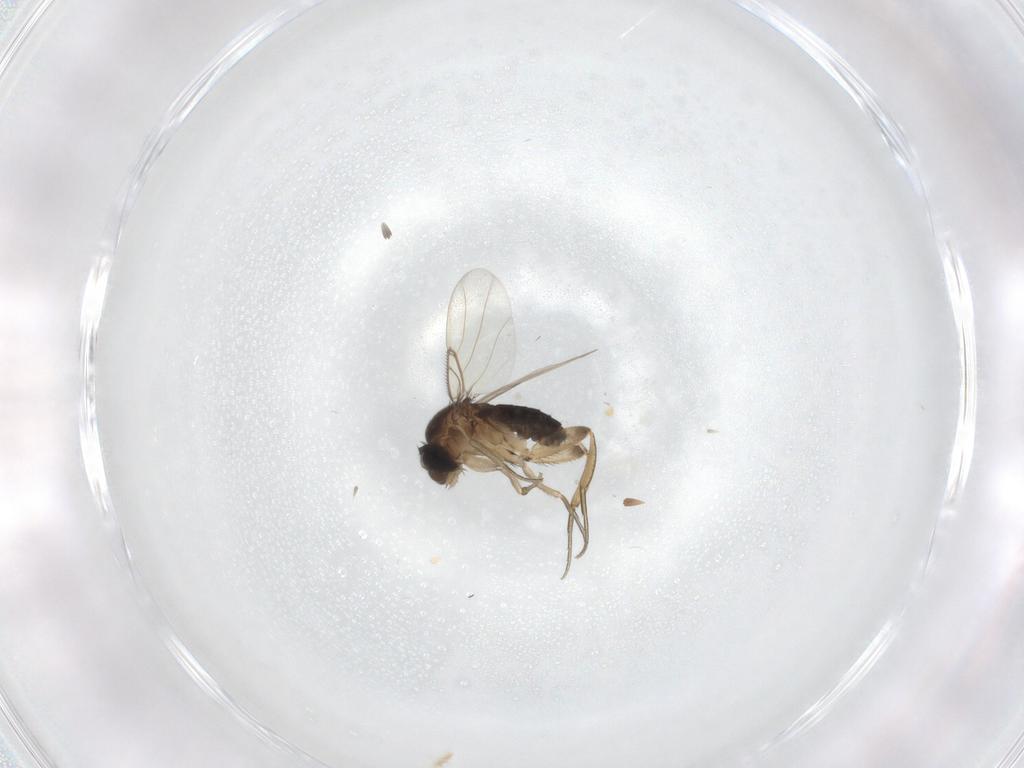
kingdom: Animalia
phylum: Arthropoda
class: Insecta
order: Diptera
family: Phoridae
